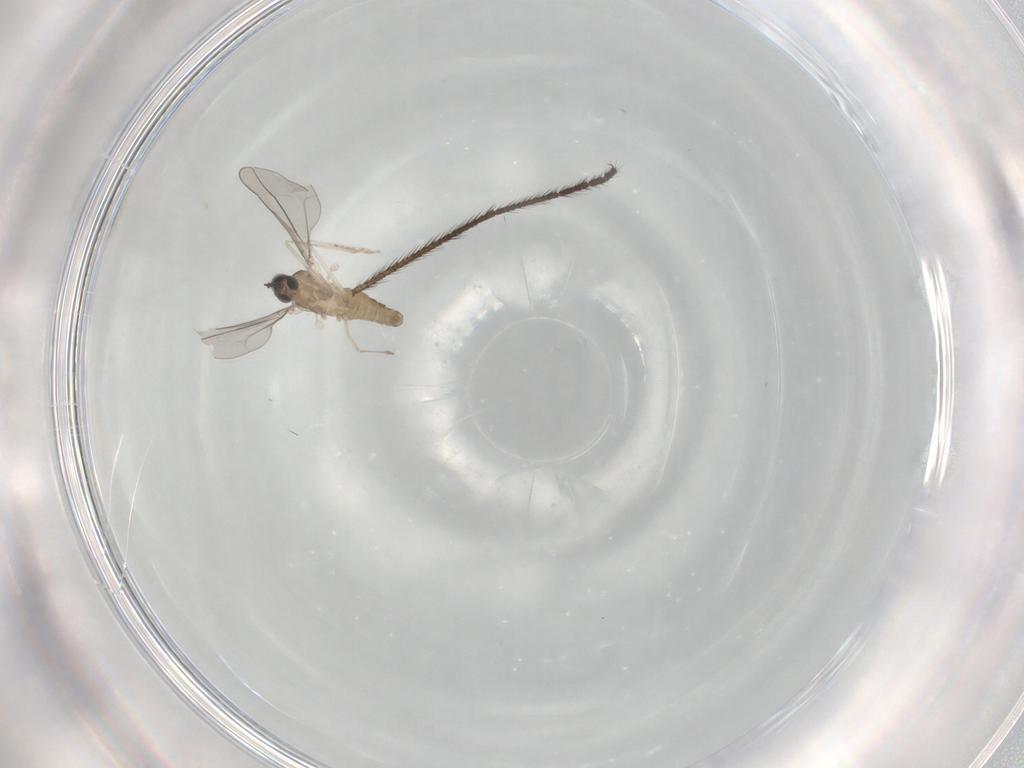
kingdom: Animalia
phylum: Arthropoda
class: Insecta
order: Diptera
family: Cecidomyiidae
